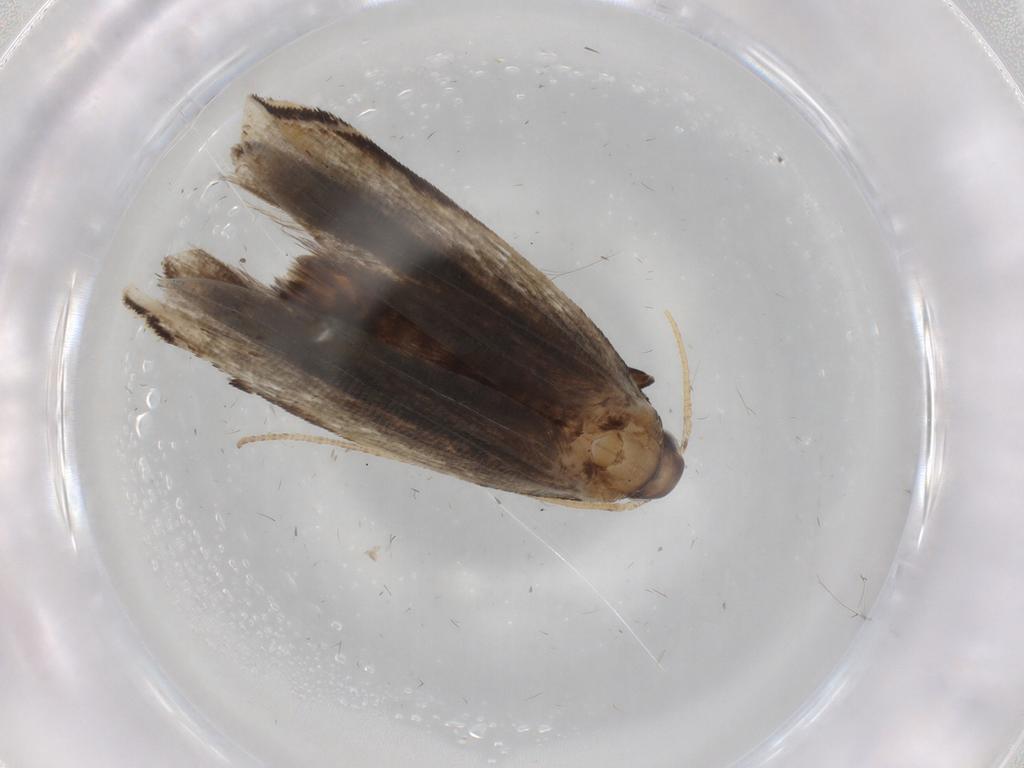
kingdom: Animalia
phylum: Arthropoda
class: Insecta
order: Lepidoptera
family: Gelechiidae
